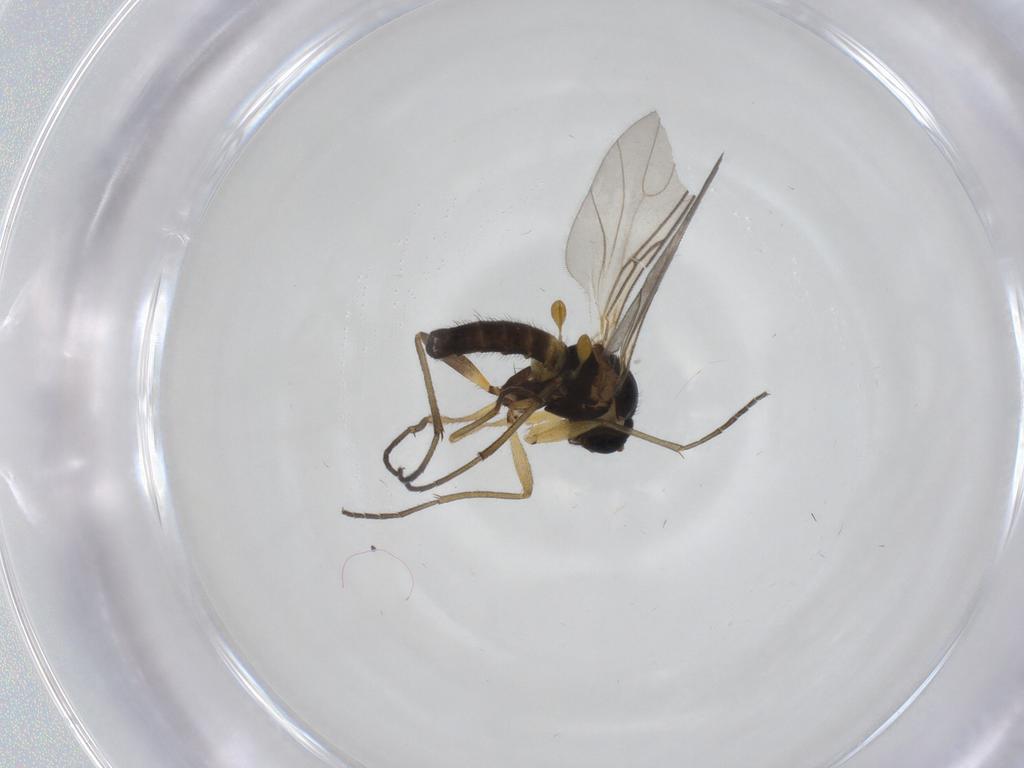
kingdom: Animalia
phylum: Arthropoda
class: Insecta
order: Diptera
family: Sciaridae
